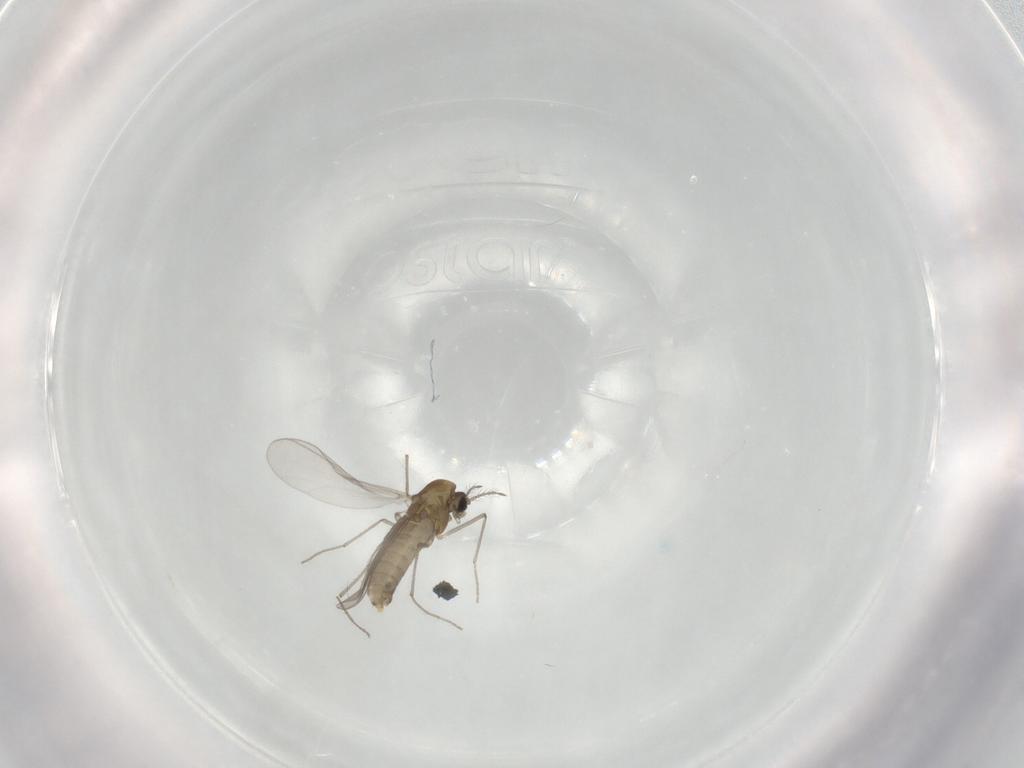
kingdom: Animalia
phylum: Arthropoda
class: Insecta
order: Diptera
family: Chironomidae
